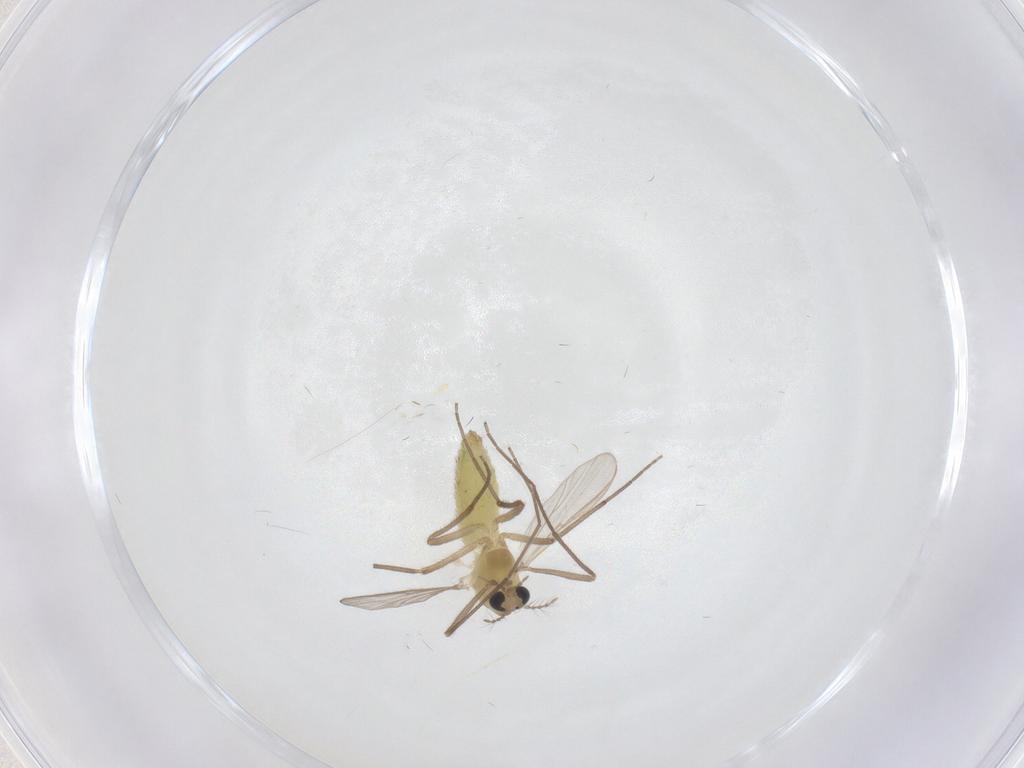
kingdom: Animalia
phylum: Arthropoda
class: Insecta
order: Diptera
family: Chironomidae
